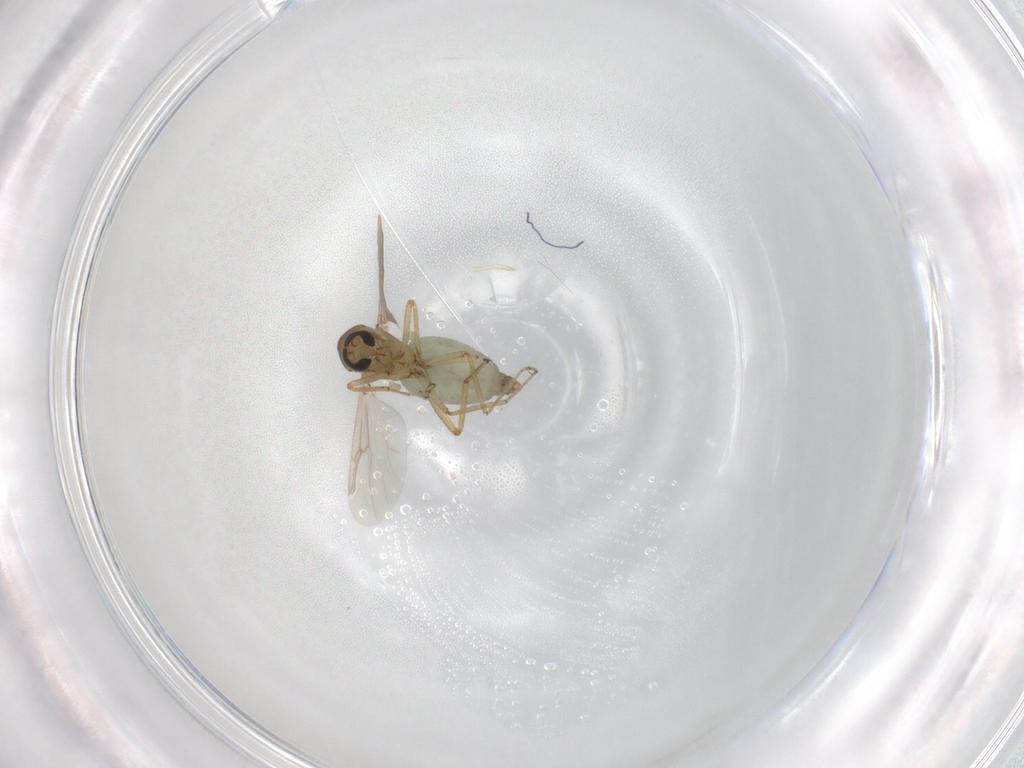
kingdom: Animalia
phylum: Arthropoda
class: Insecta
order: Diptera
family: Ceratopogonidae
